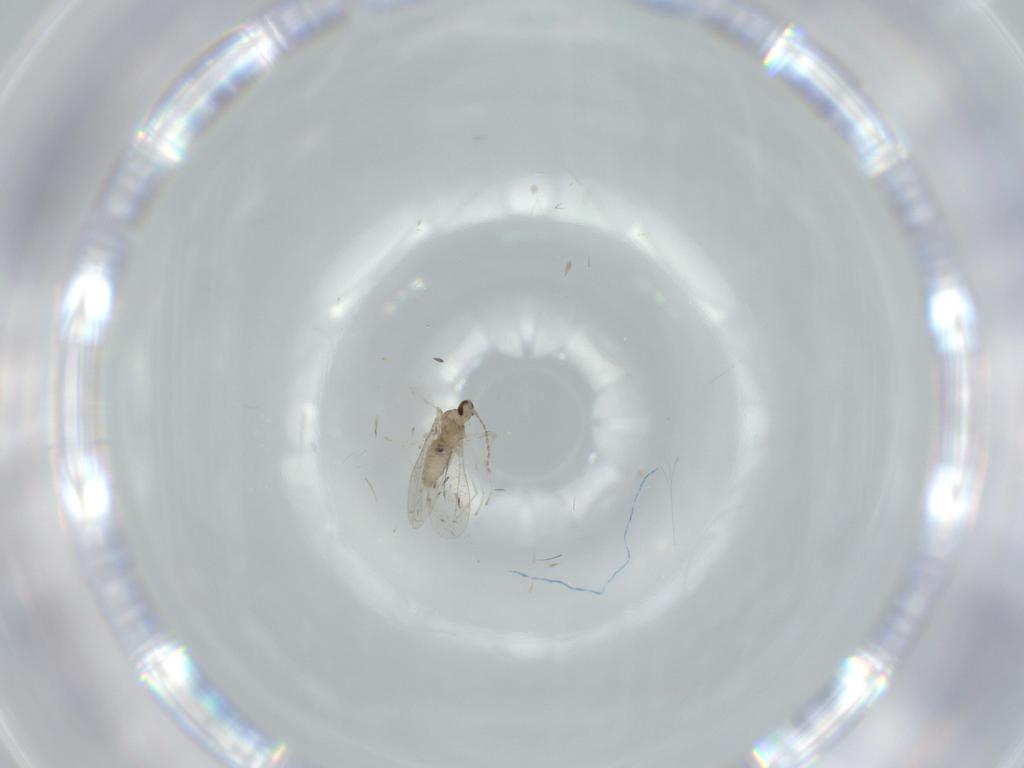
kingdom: Animalia
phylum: Arthropoda
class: Insecta
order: Diptera
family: Cecidomyiidae
